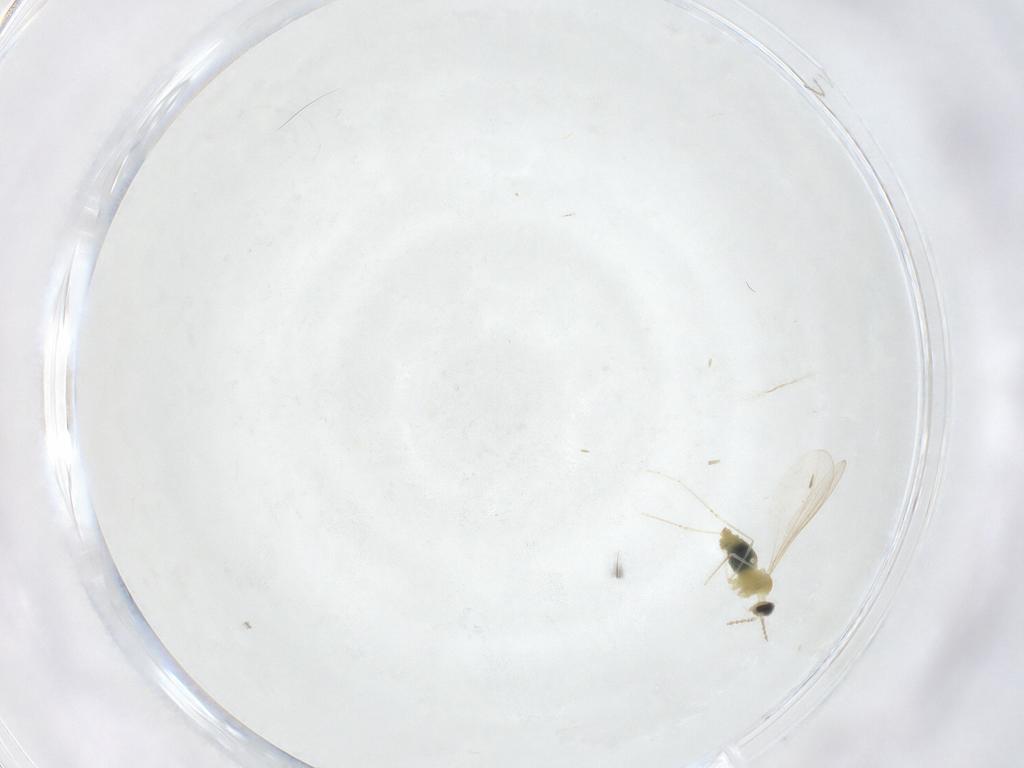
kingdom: Animalia
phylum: Arthropoda
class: Insecta
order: Diptera
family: Cecidomyiidae
